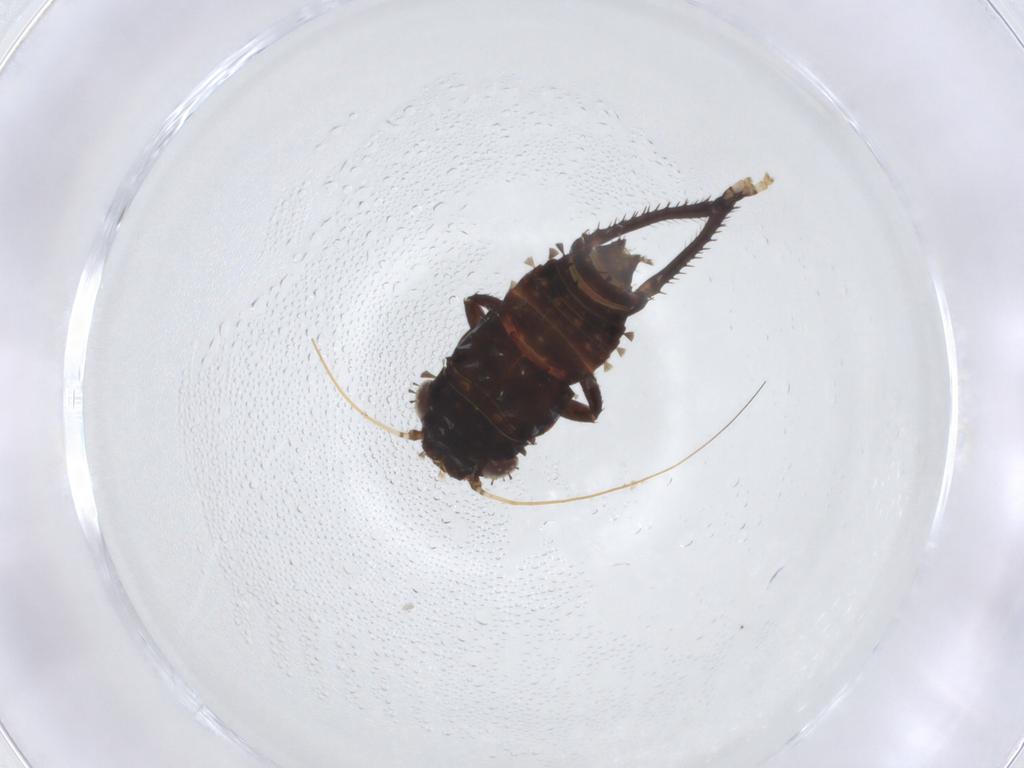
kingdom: Animalia
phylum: Arthropoda
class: Insecta
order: Hemiptera
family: Cicadellidae
